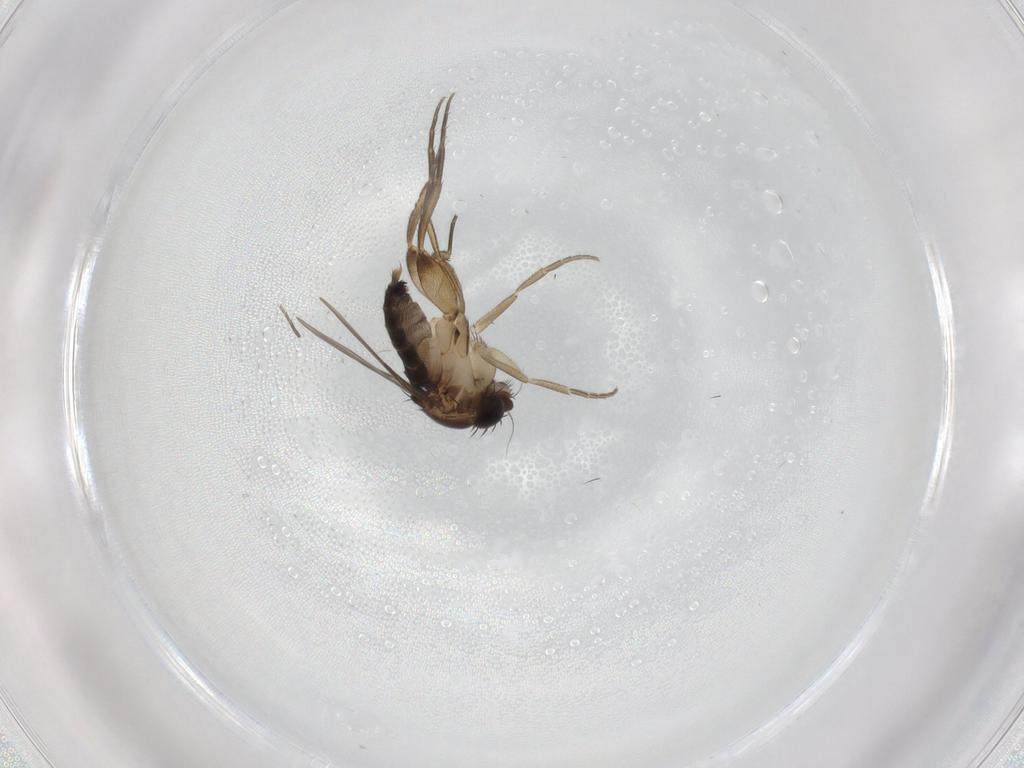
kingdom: Animalia
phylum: Arthropoda
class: Insecta
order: Diptera
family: Phoridae
